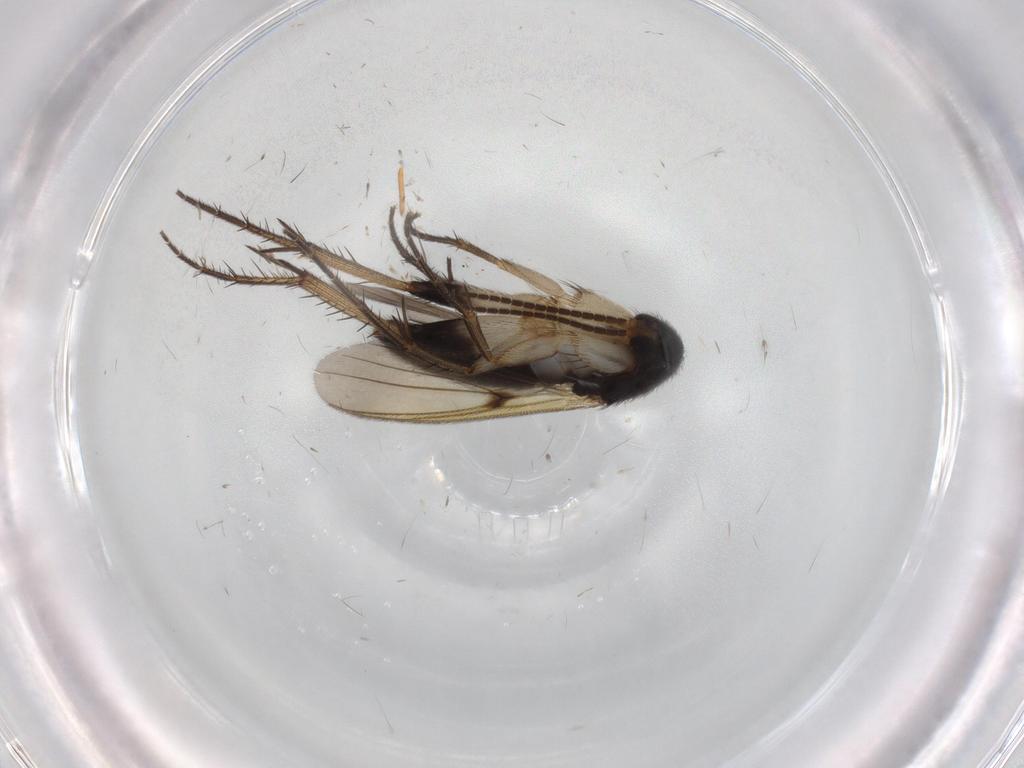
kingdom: Animalia
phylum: Arthropoda
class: Insecta
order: Diptera
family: Cecidomyiidae
